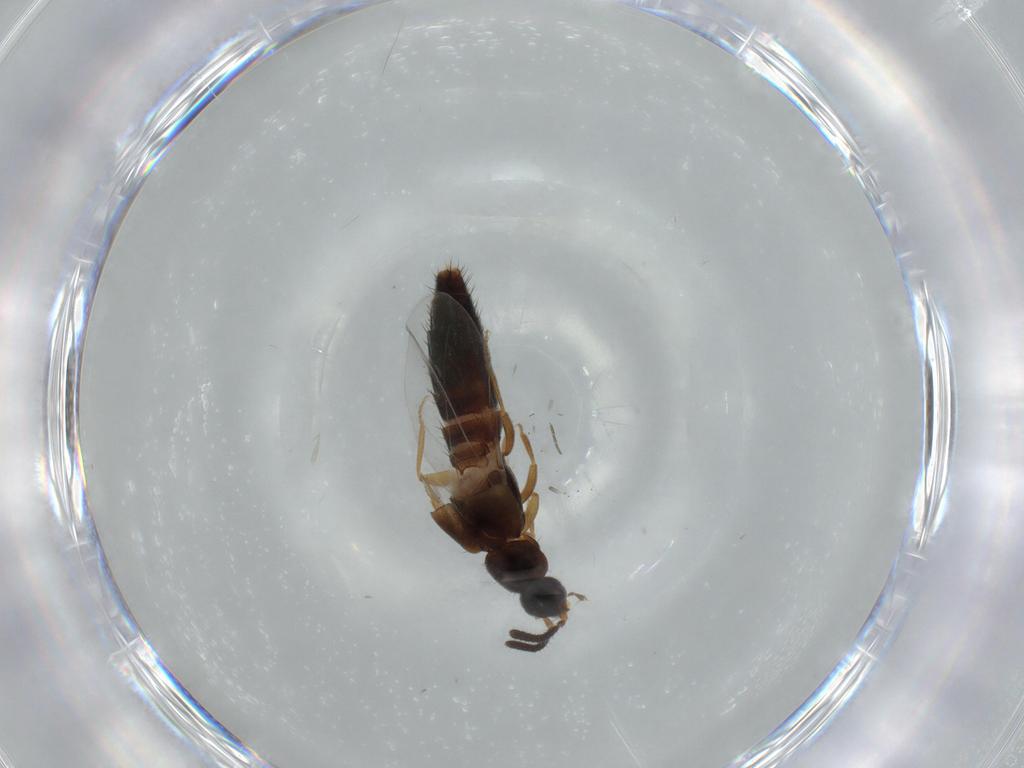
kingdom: Animalia
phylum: Arthropoda
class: Insecta
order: Coleoptera
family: Staphylinidae
